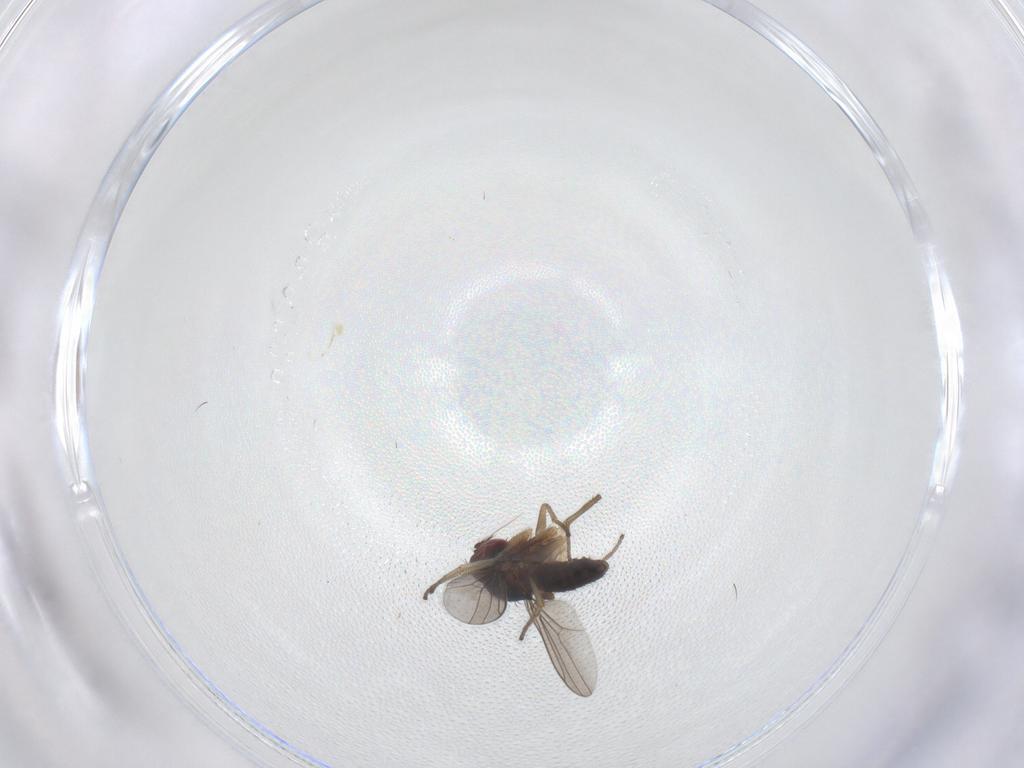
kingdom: Animalia
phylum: Arthropoda
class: Insecta
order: Diptera
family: Dolichopodidae
